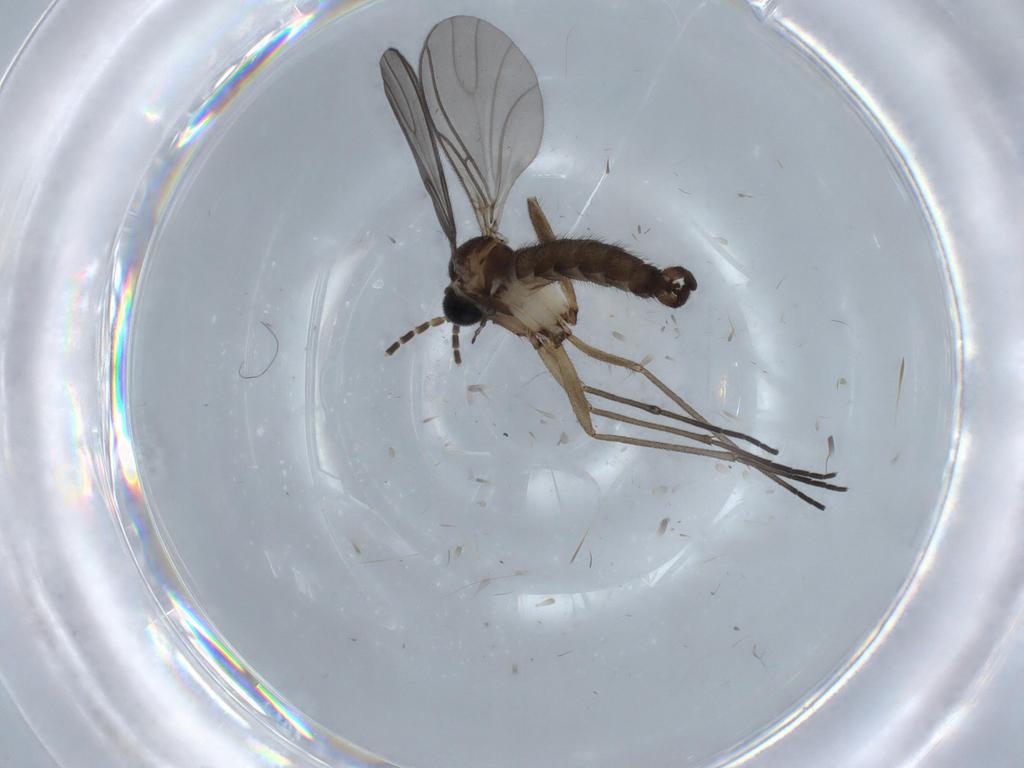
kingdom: Animalia
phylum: Arthropoda
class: Insecta
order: Diptera
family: Sciaridae
